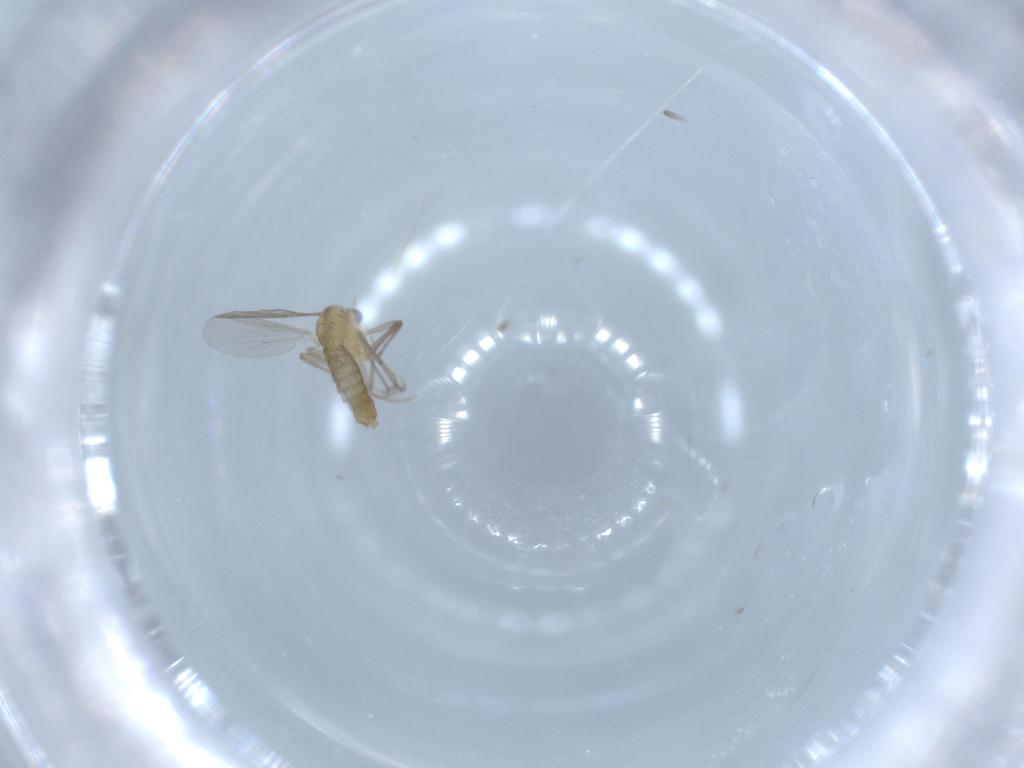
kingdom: Animalia
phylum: Arthropoda
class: Insecta
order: Diptera
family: Chironomidae
